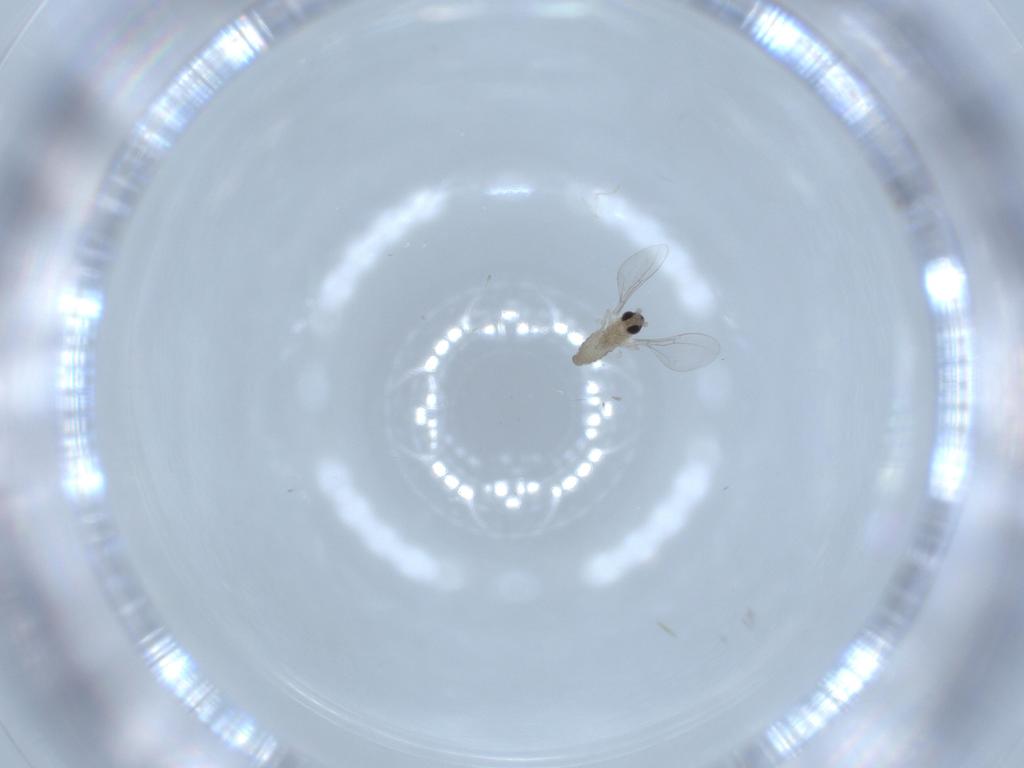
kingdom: Animalia
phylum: Arthropoda
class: Insecta
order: Diptera
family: Cecidomyiidae
